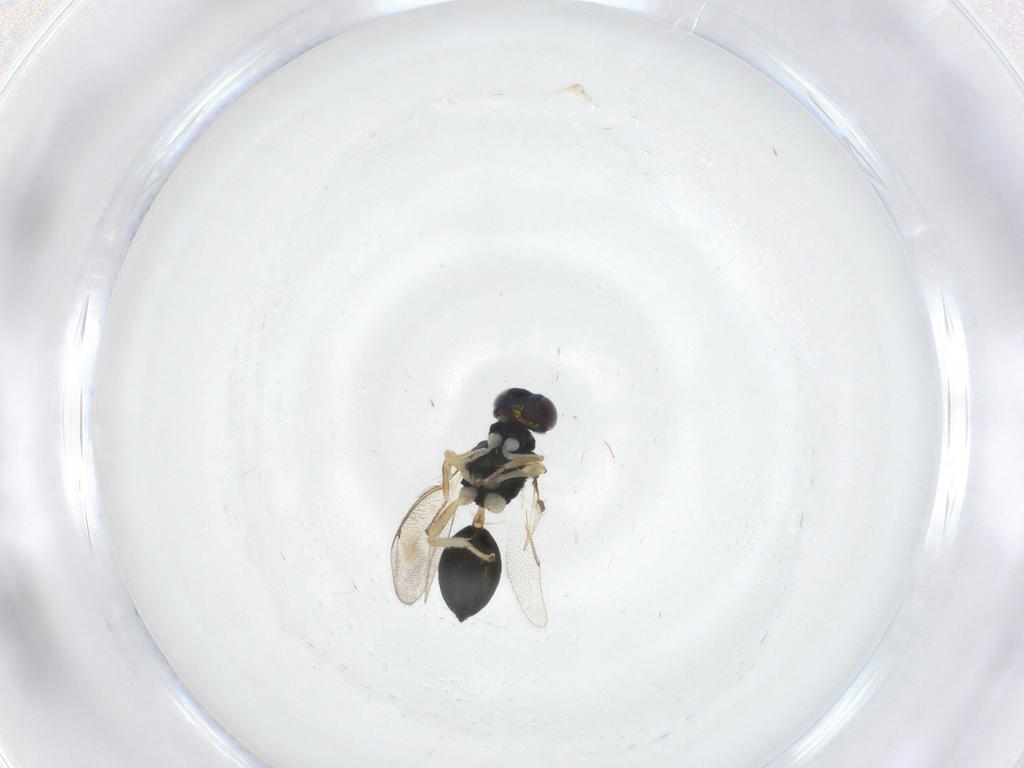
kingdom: Animalia
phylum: Arthropoda
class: Insecta
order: Hymenoptera
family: Eulophidae
